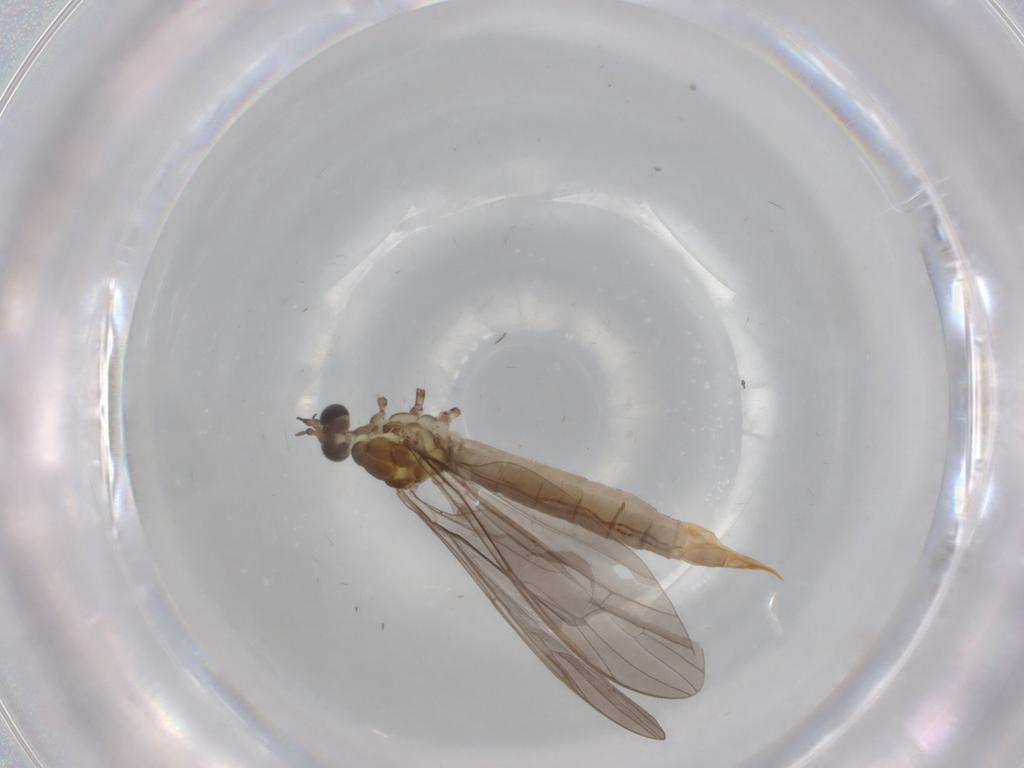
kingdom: Animalia
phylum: Arthropoda
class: Insecta
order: Diptera
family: Limoniidae
